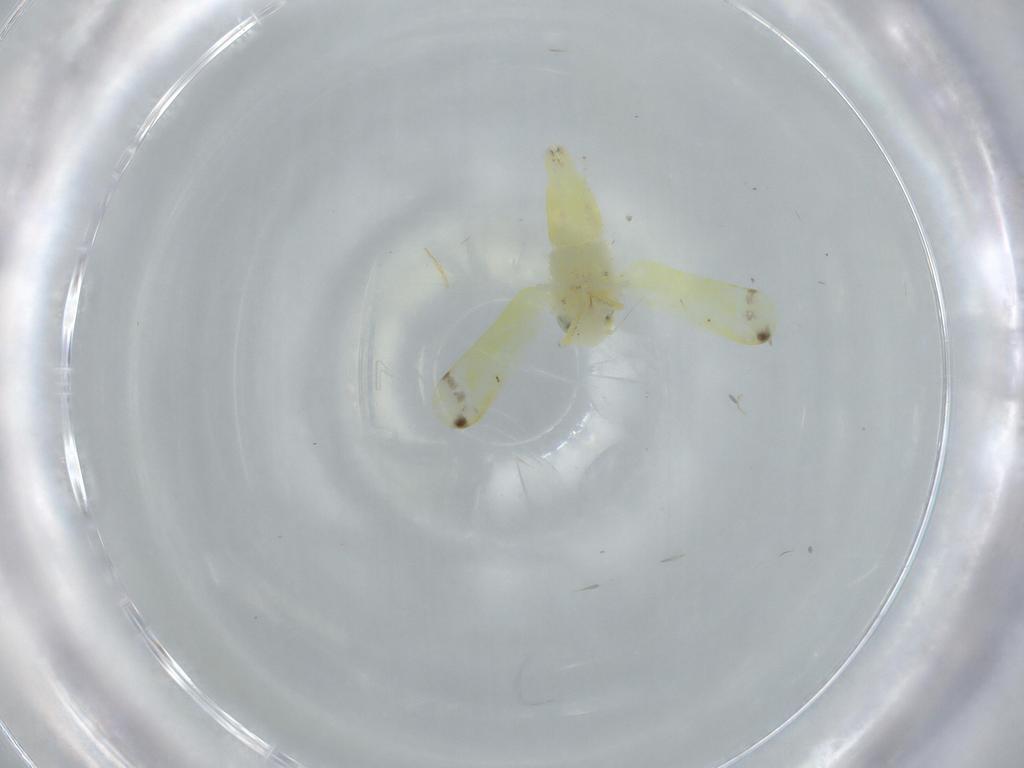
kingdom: Animalia
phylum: Arthropoda
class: Insecta
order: Hemiptera
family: Cicadellidae
